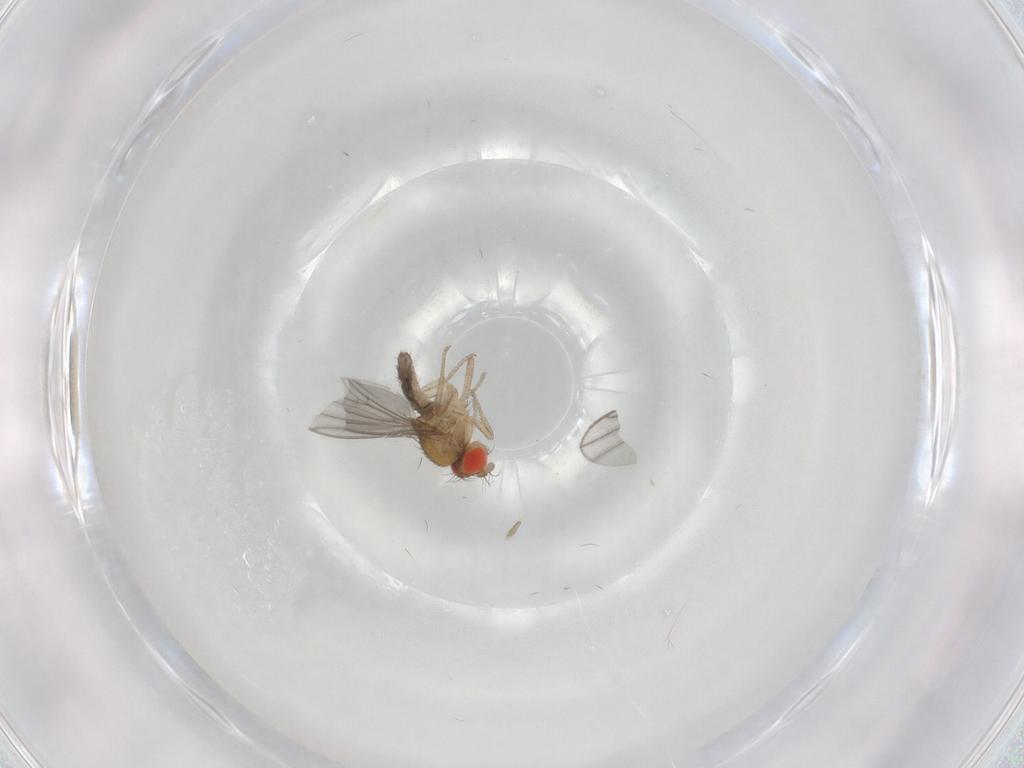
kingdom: Animalia
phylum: Arthropoda
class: Insecta
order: Diptera
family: Drosophilidae
